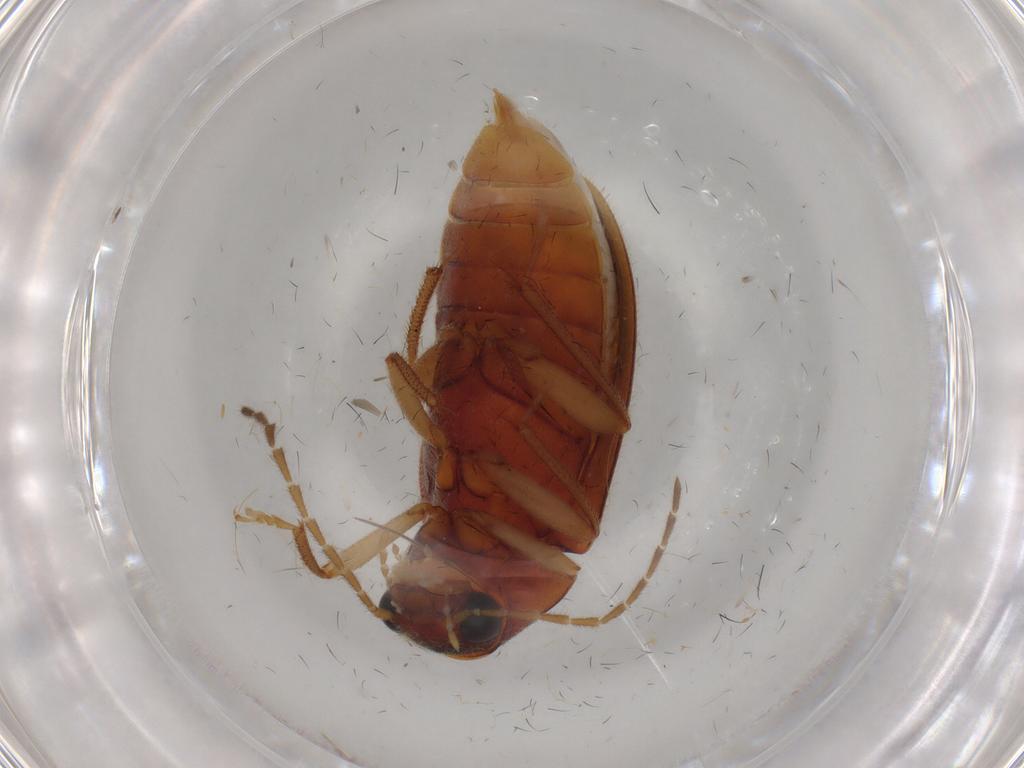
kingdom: Animalia
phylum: Arthropoda
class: Insecta
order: Coleoptera
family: Ptilodactylidae
